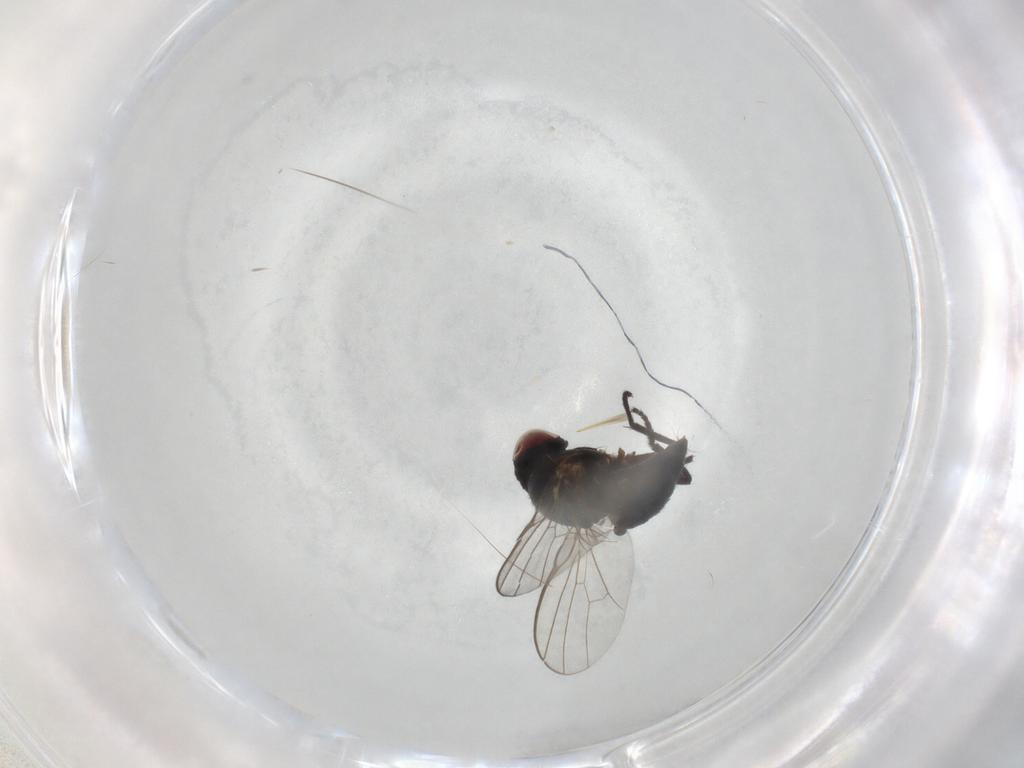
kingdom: Animalia
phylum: Arthropoda
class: Insecta
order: Diptera
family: Agromyzidae
